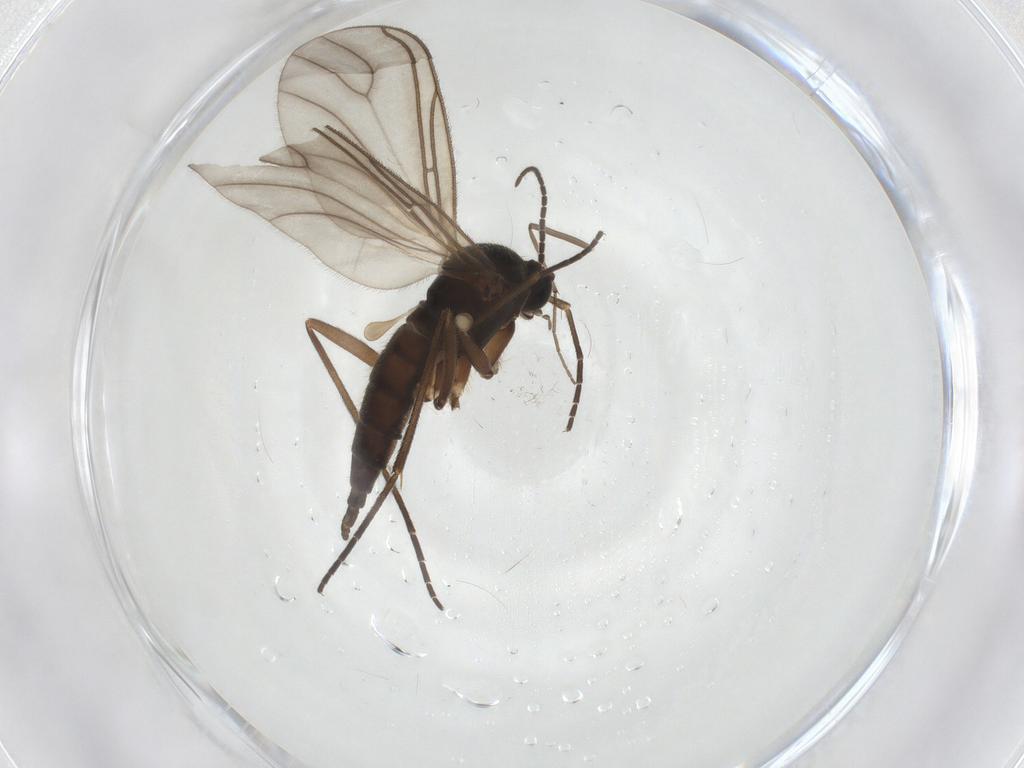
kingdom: Animalia
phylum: Arthropoda
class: Insecta
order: Diptera
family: Sciaridae
